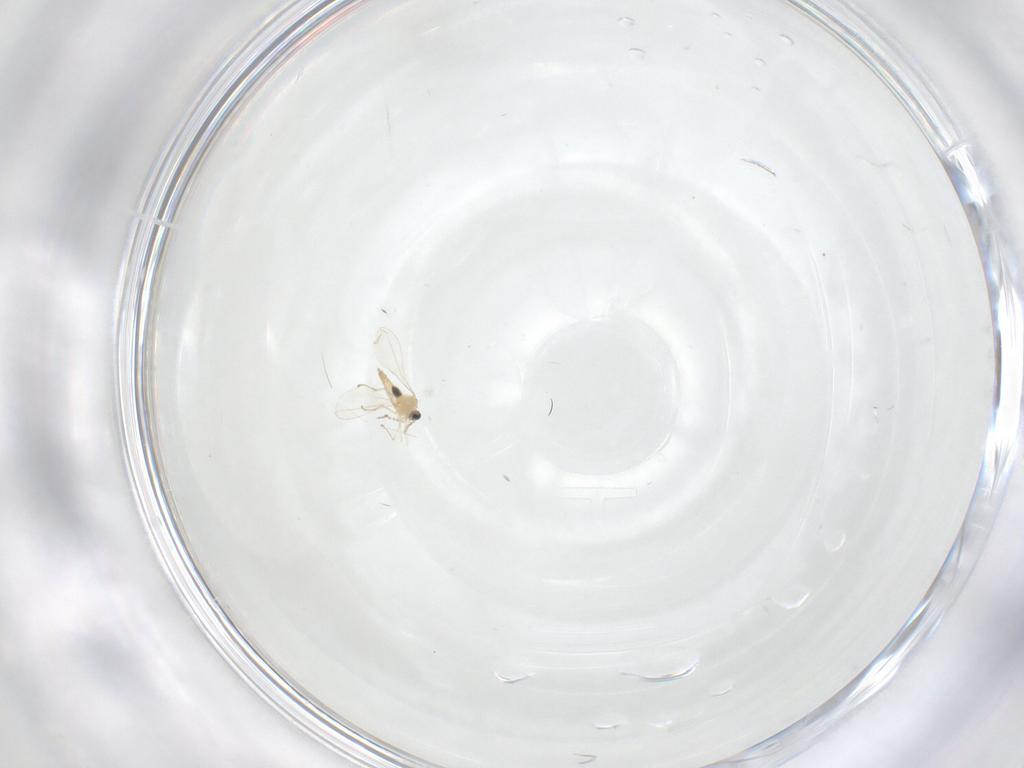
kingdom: Animalia
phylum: Arthropoda
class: Insecta
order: Diptera
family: Cecidomyiidae
